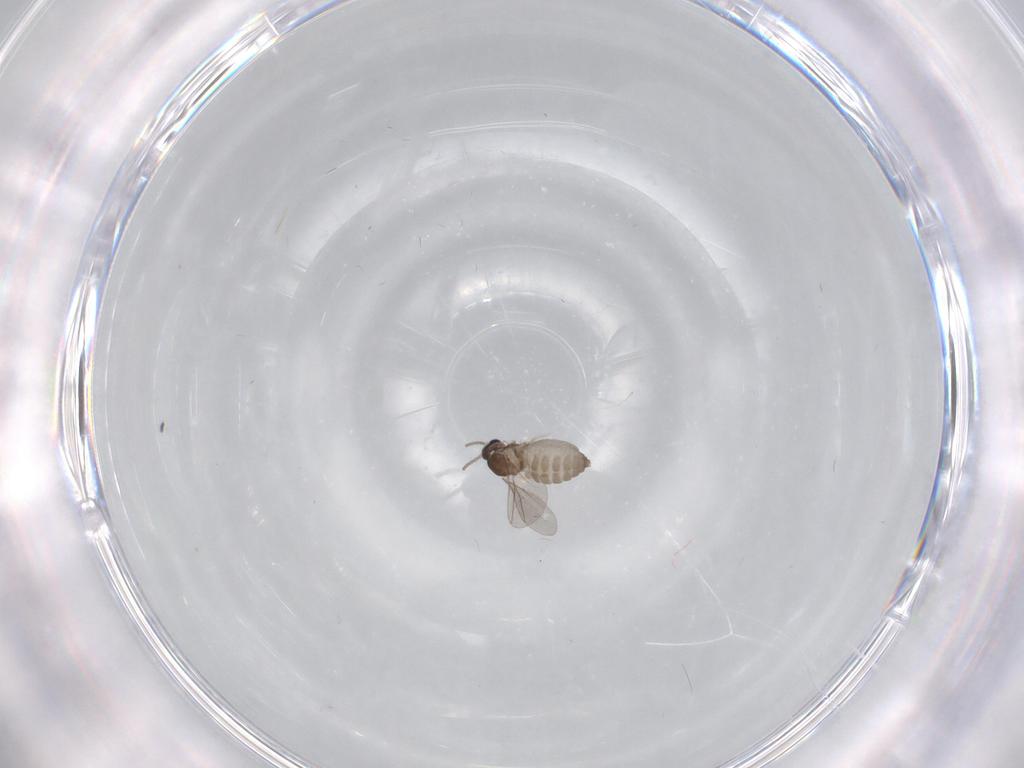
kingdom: Animalia
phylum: Arthropoda
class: Insecta
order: Diptera
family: Cecidomyiidae
